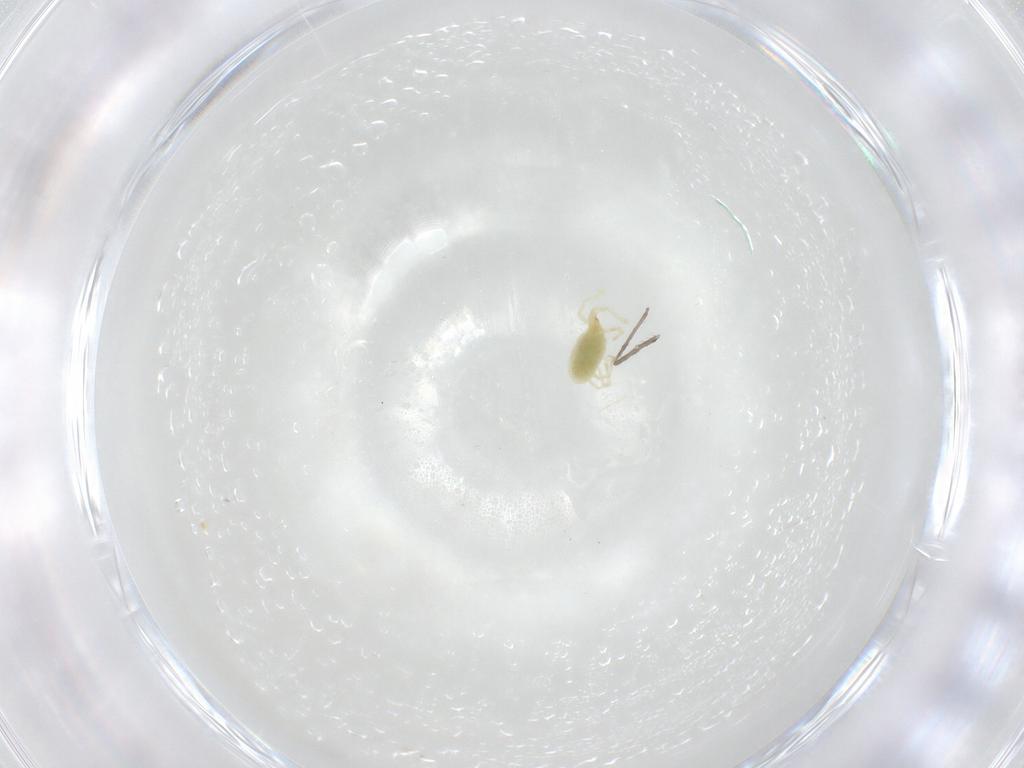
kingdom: Animalia
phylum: Arthropoda
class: Arachnida
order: Trombidiformes
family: Erythraeidae
